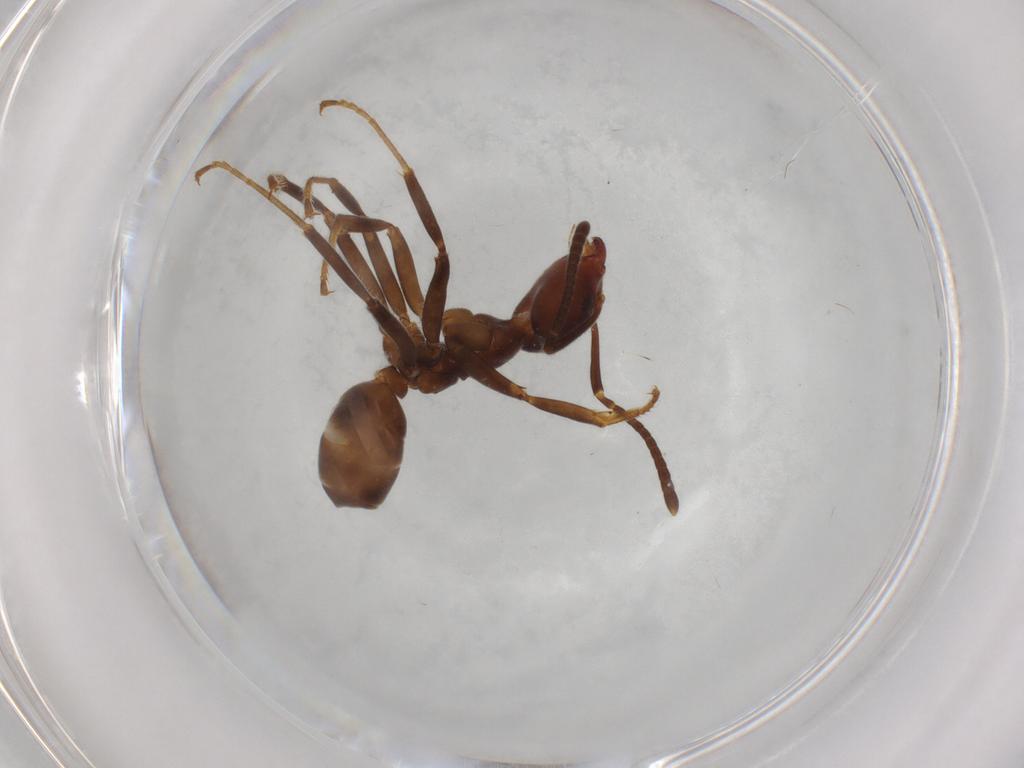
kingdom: Animalia
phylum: Arthropoda
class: Insecta
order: Hymenoptera
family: Formicidae
